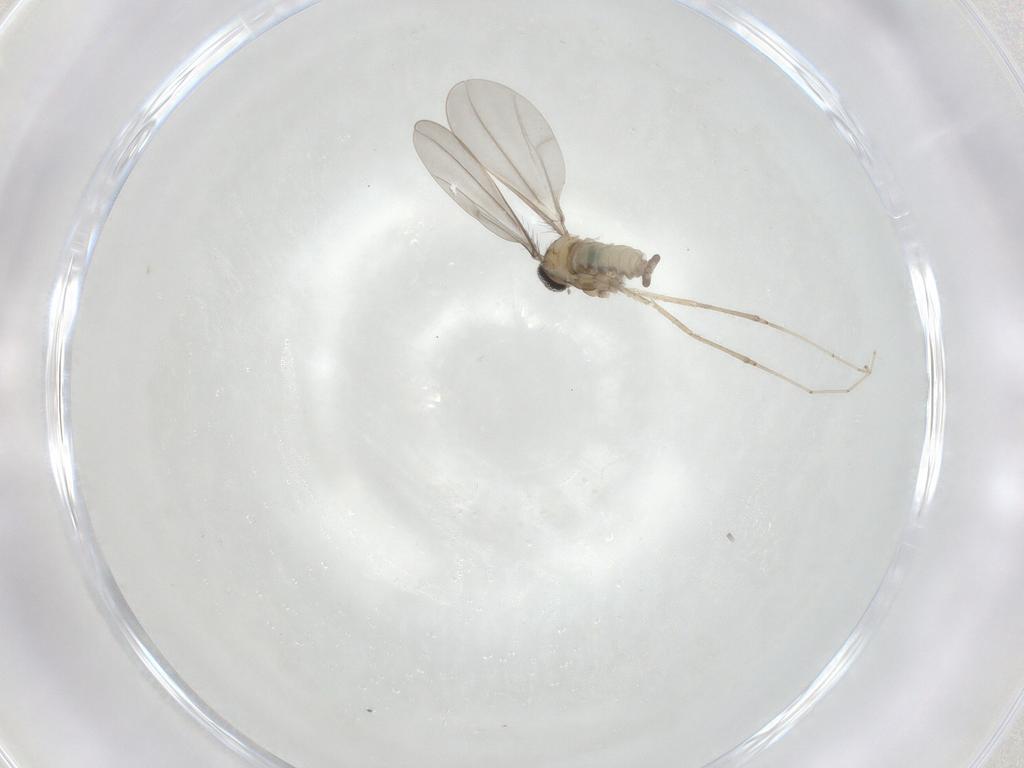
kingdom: Animalia
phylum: Arthropoda
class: Insecta
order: Diptera
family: Cecidomyiidae
